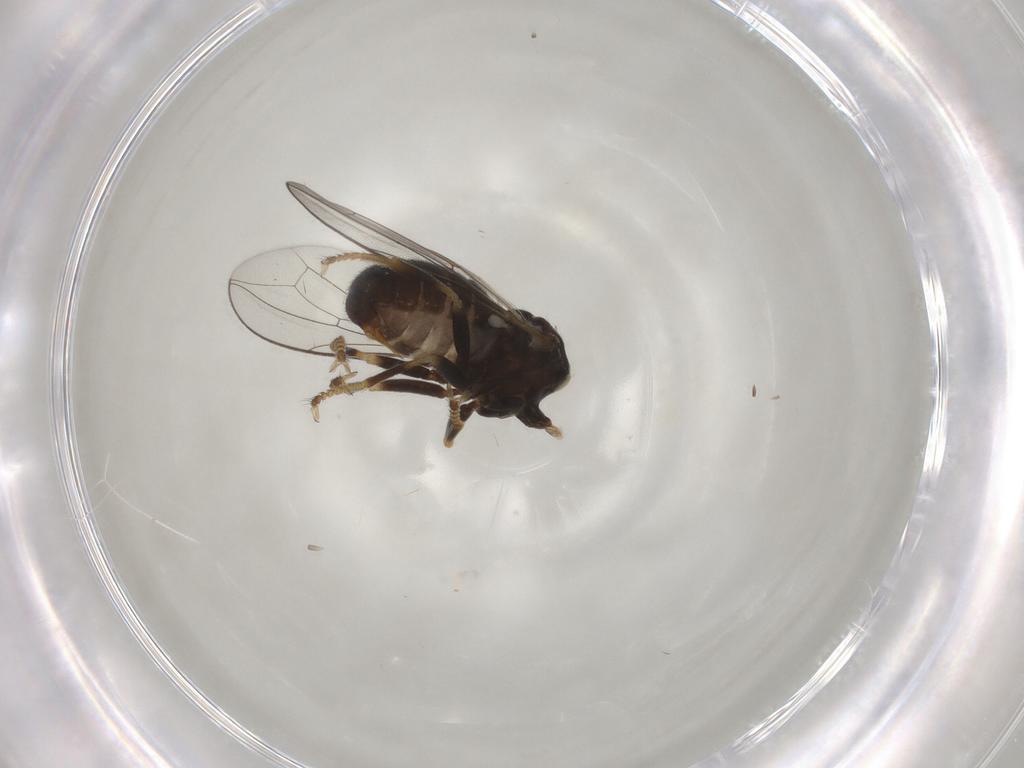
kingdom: Animalia
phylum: Arthropoda
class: Insecta
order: Diptera
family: Pipunculidae
